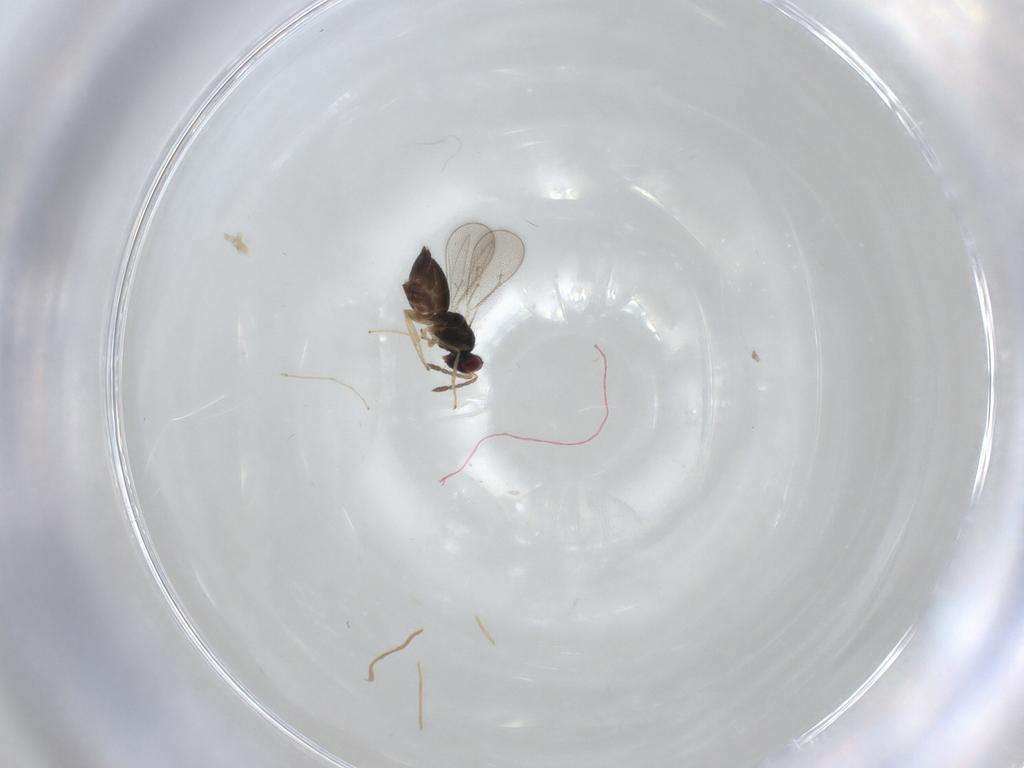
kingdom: Animalia
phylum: Arthropoda
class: Insecta
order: Hymenoptera
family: Eulophidae
